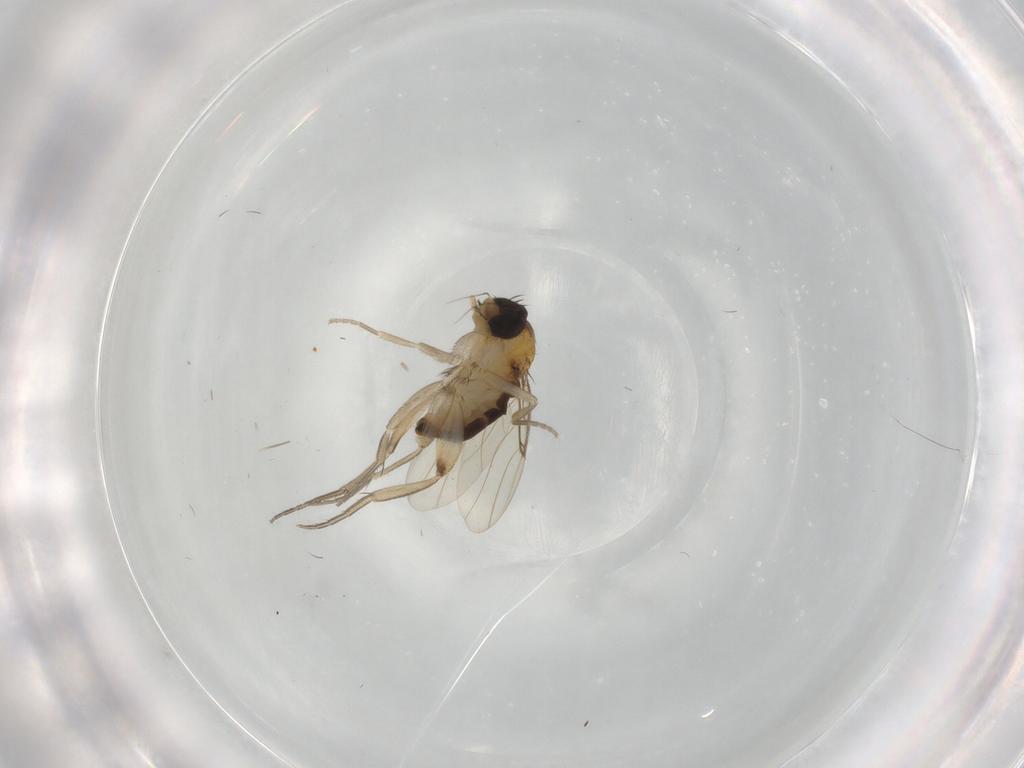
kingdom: Animalia
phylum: Arthropoda
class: Insecta
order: Diptera
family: Phoridae
